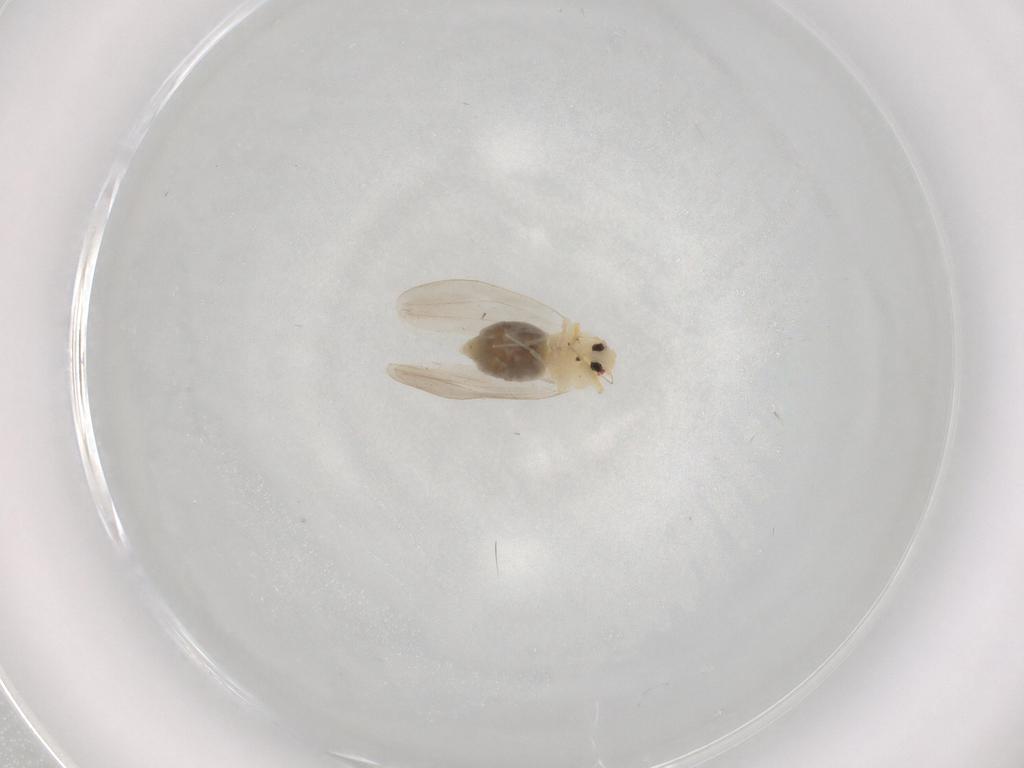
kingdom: Animalia
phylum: Arthropoda
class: Insecta
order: Hemiptera
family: Aleyrodidae
